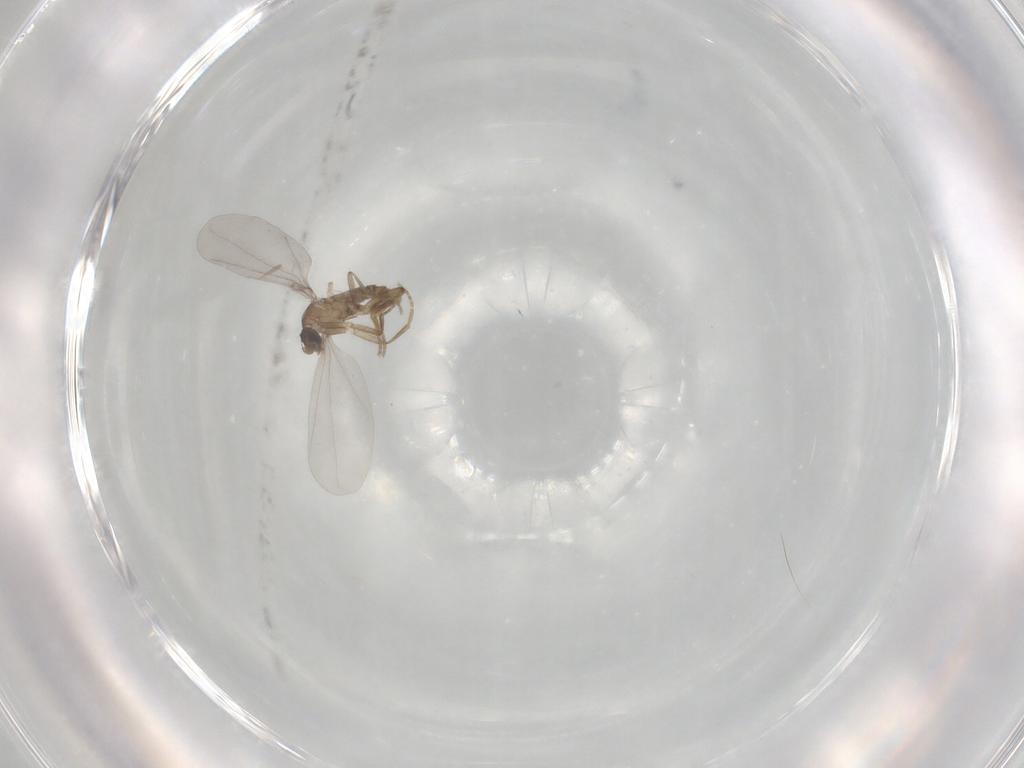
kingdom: Animalia
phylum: Arthropoda
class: Insecta
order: Diptera
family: Phoridae
